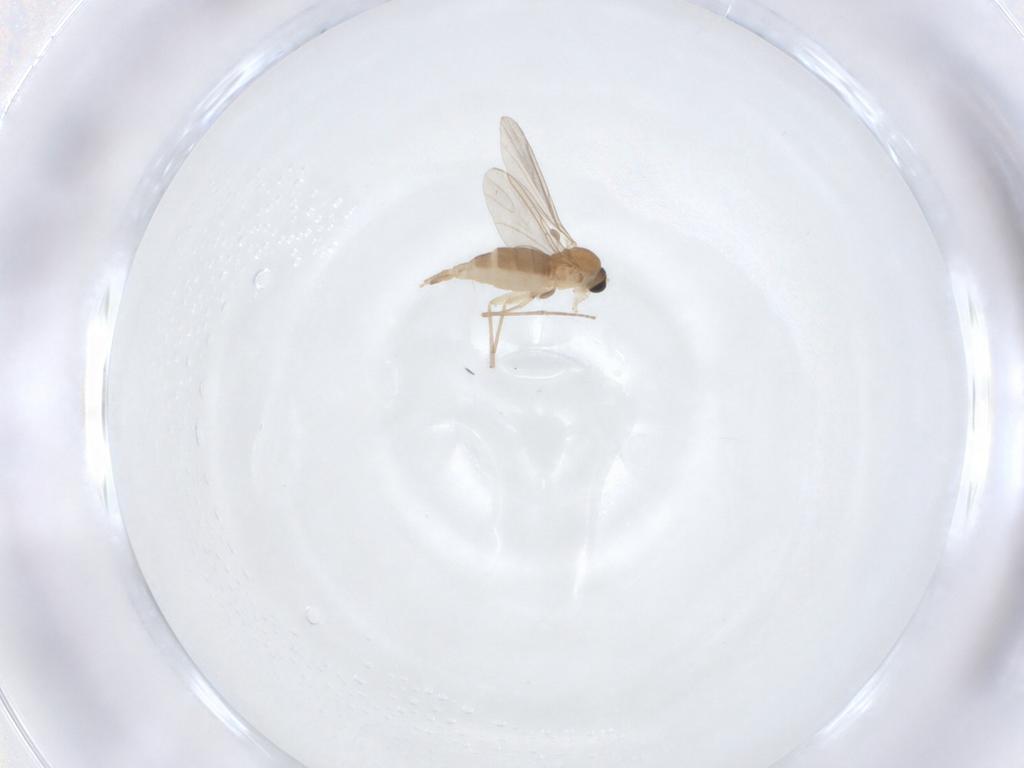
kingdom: Animalia
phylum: Arthropoda
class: Insecta
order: Diptera
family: Sciaridae
